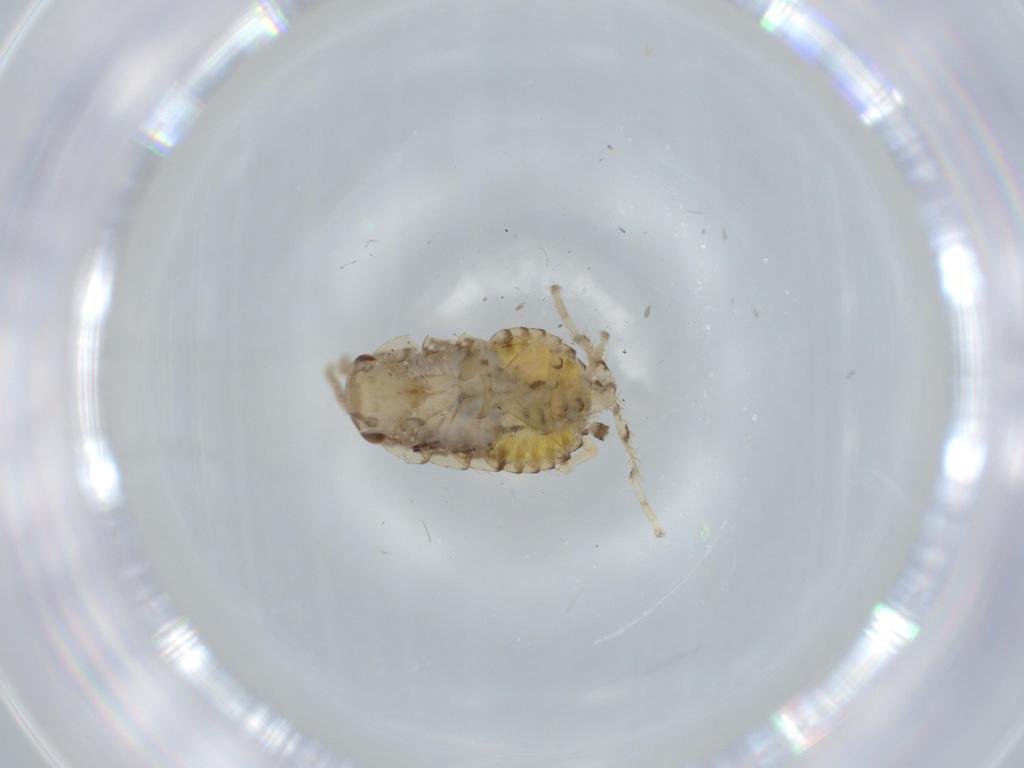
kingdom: Animalia
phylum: Arthropoda
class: Insecta
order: Blattodea
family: Ectobiidae
